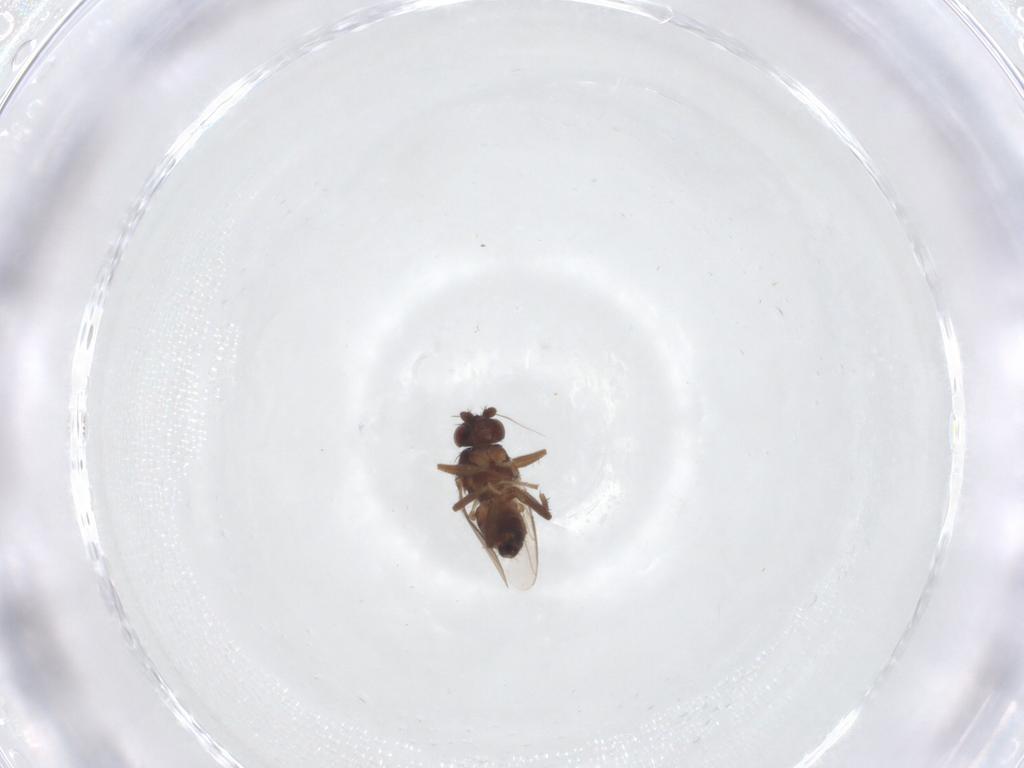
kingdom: Animalia
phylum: Arthropoda
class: Insecta
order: Diptera
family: Sphaeroceridae
